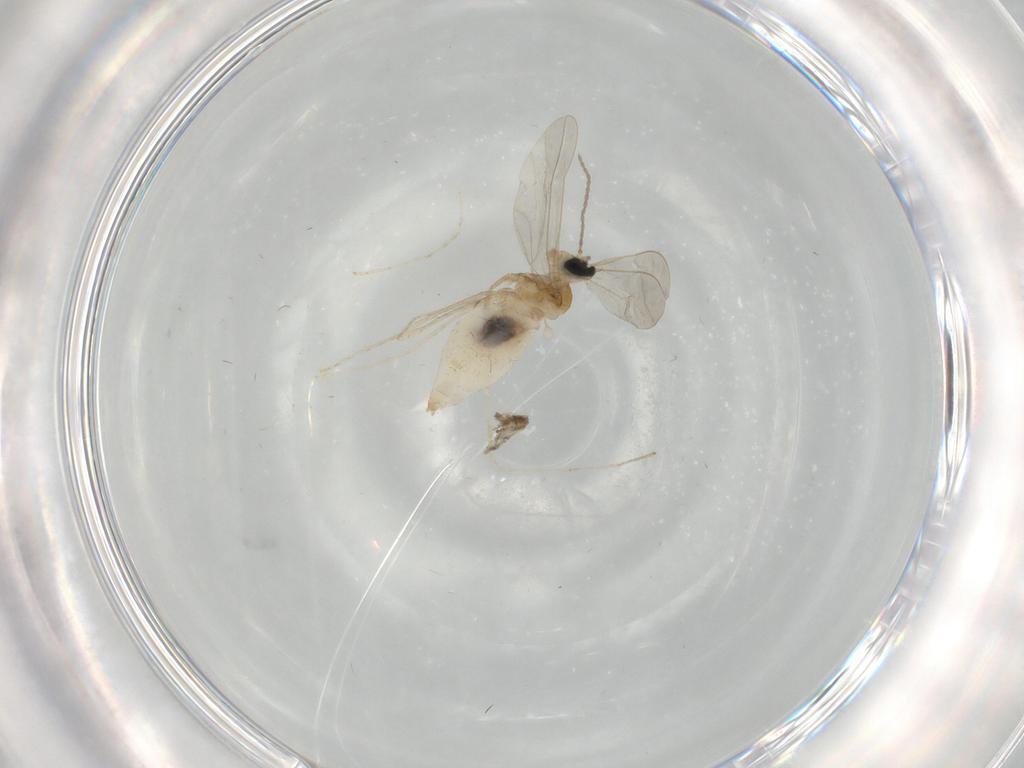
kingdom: Animalia
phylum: Arthropoda
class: Insecta
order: Diptera
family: Cecidomyiidae
